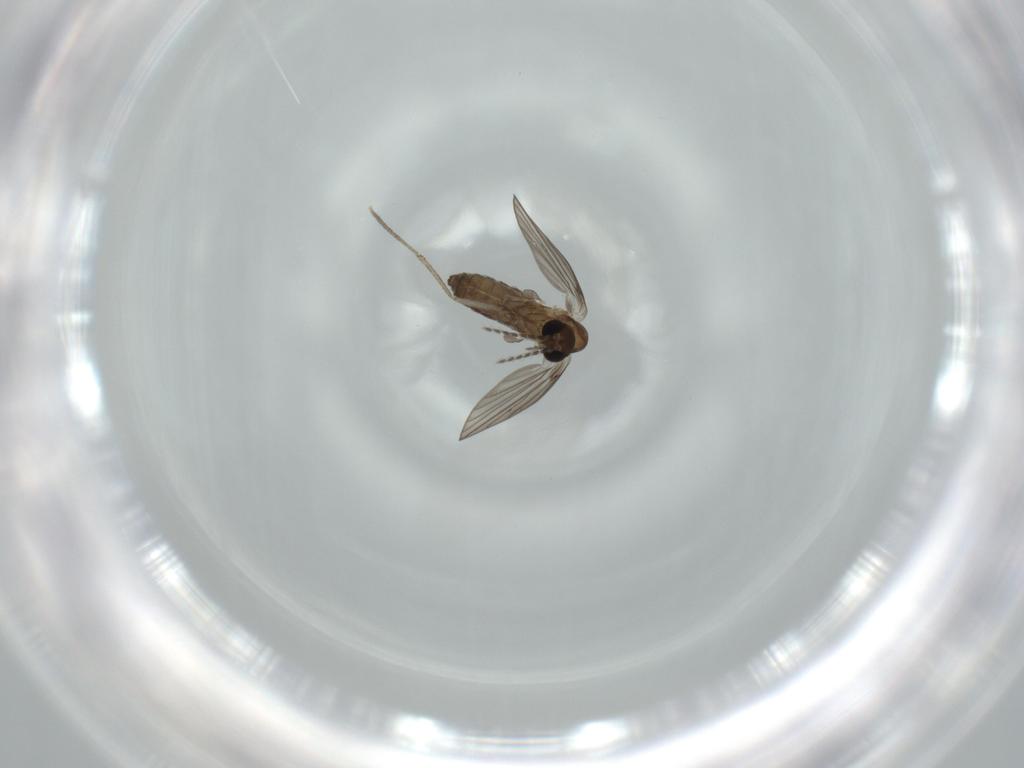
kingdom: Animalia
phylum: Arthropoda
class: Insecta
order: Diptera
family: Psychodidae
